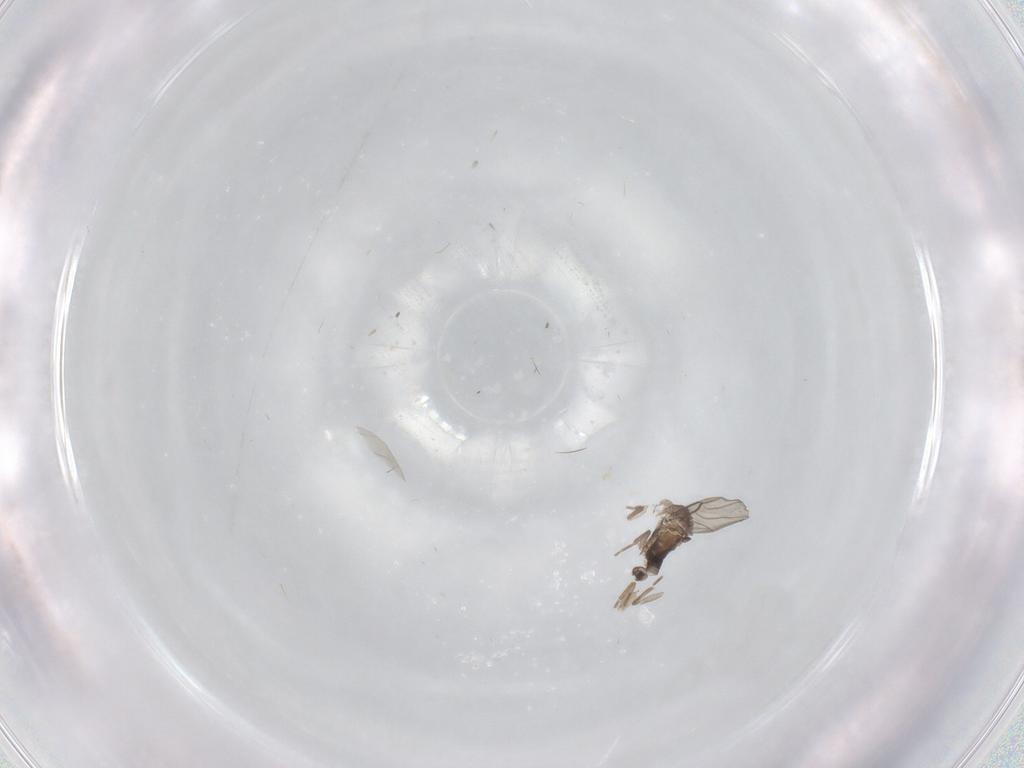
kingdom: Animalia
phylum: Arthropoda
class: Insecta
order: Diptera
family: Phoridae
